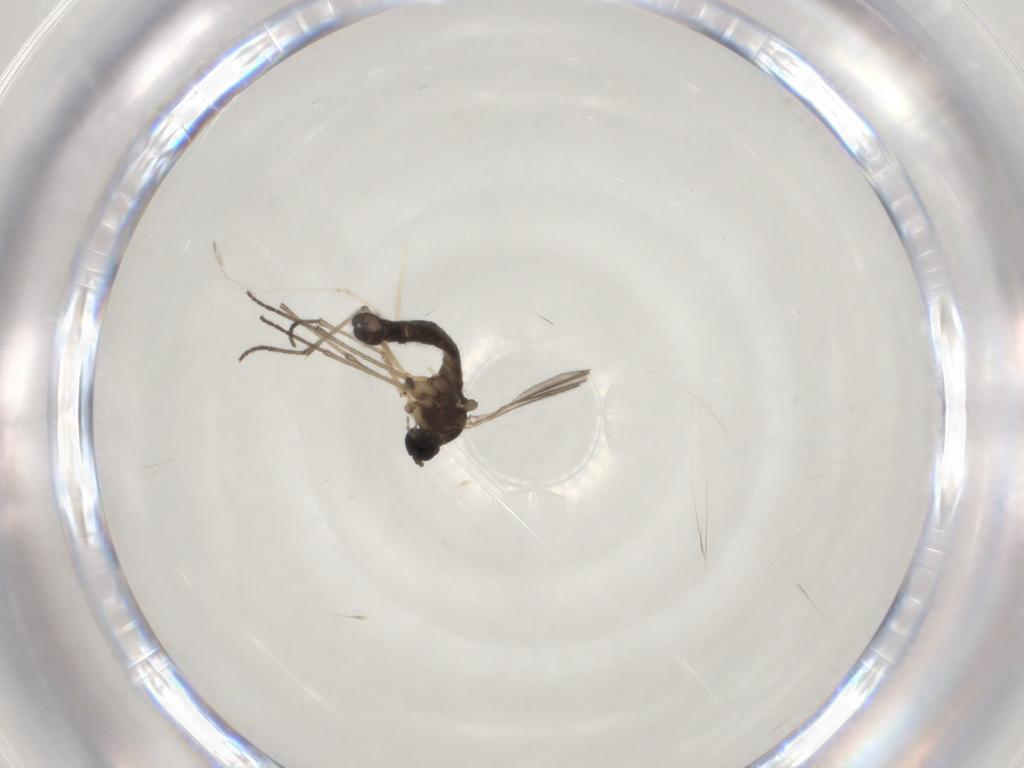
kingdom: Animalia
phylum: Arthropoda
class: Insecta
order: Diptera
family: Sciaridae
